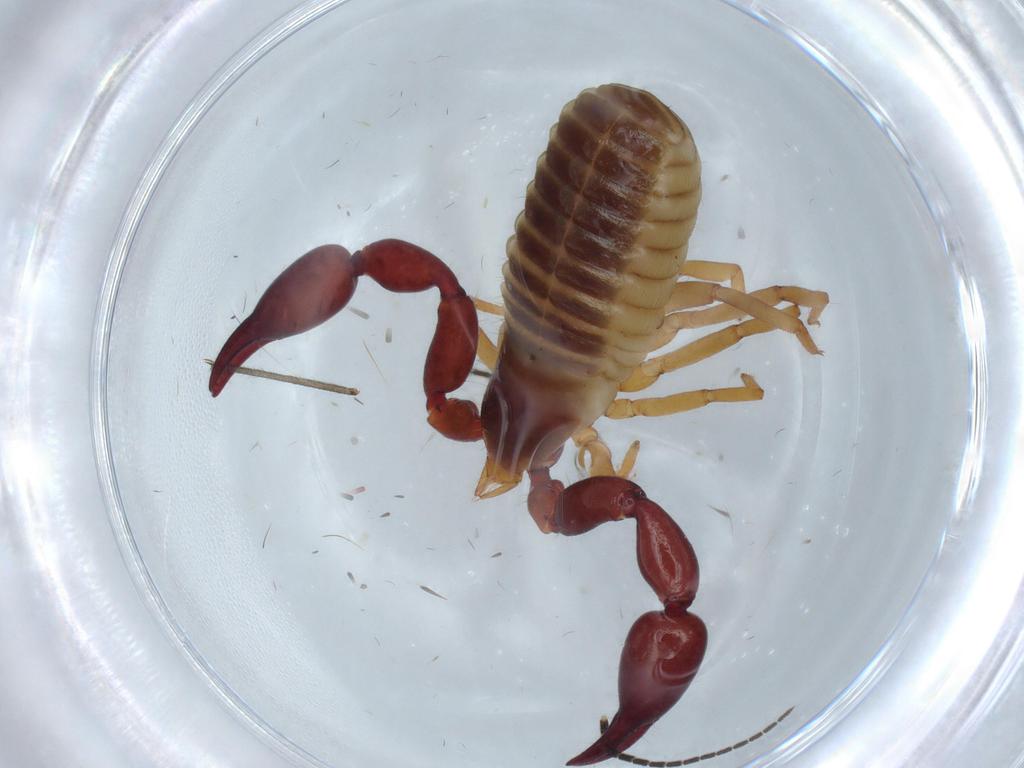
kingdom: Animalia
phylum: Arthropoda
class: Arachnida
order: Pseudoscorpiones
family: Chernetidae
